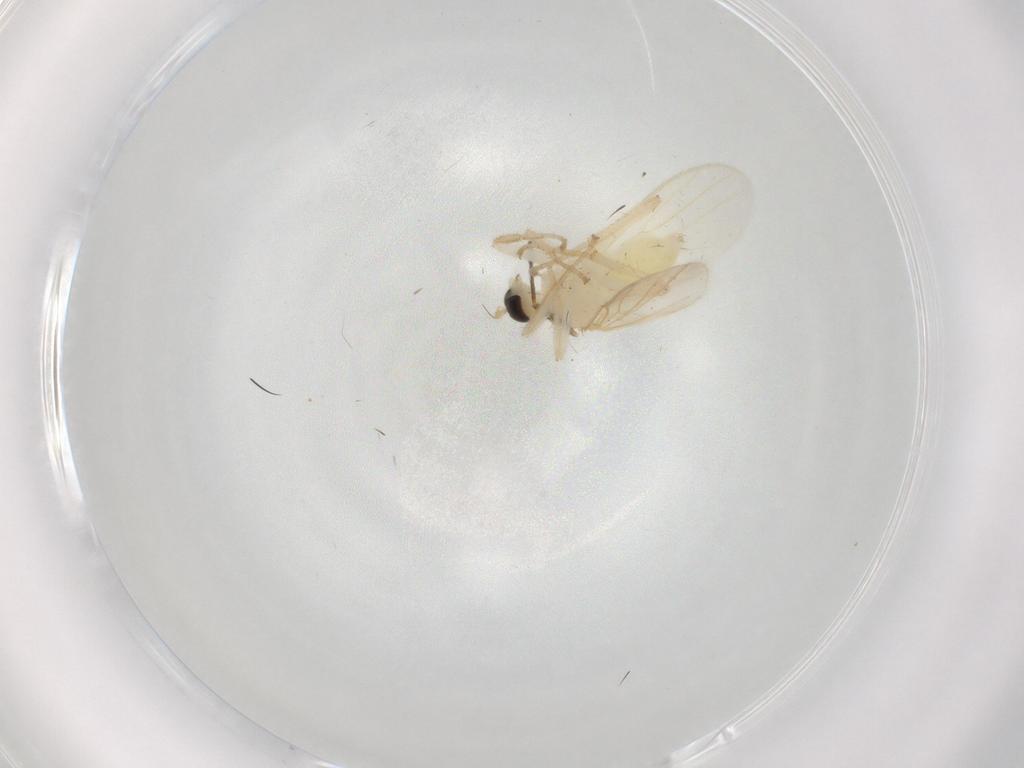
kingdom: Animalia
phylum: Arthropoda
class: Insecta
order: Diptera
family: Hybotidae
